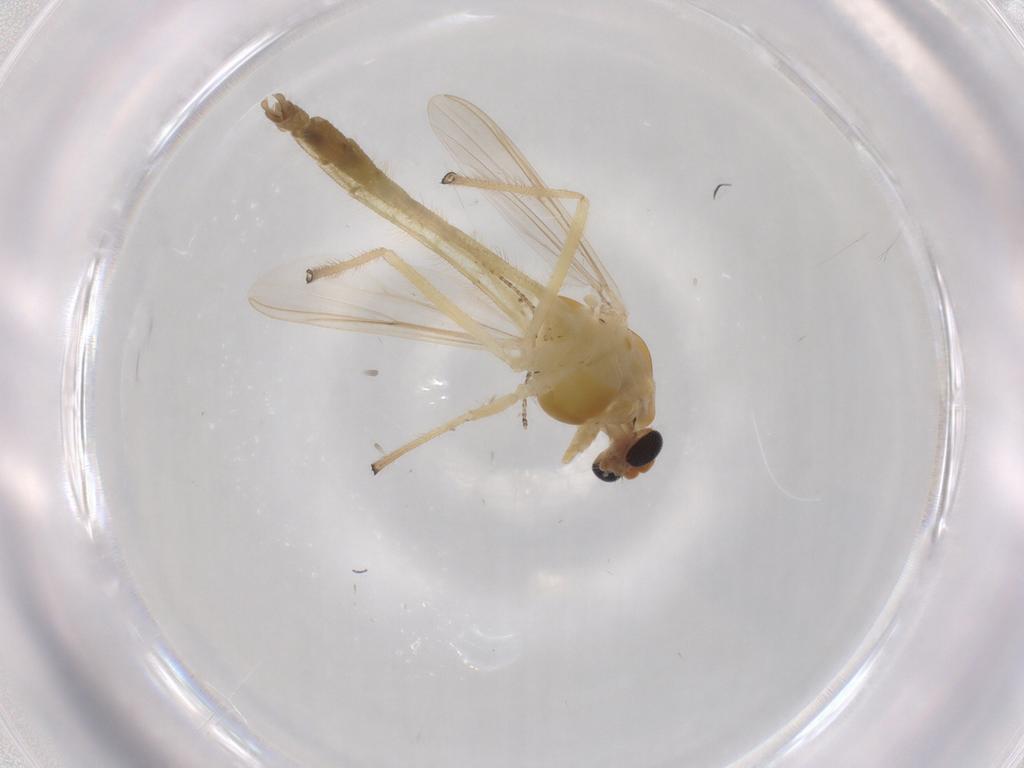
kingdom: Animalia
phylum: Arthropoda
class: Insecta
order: Diptera
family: Chironomidae
